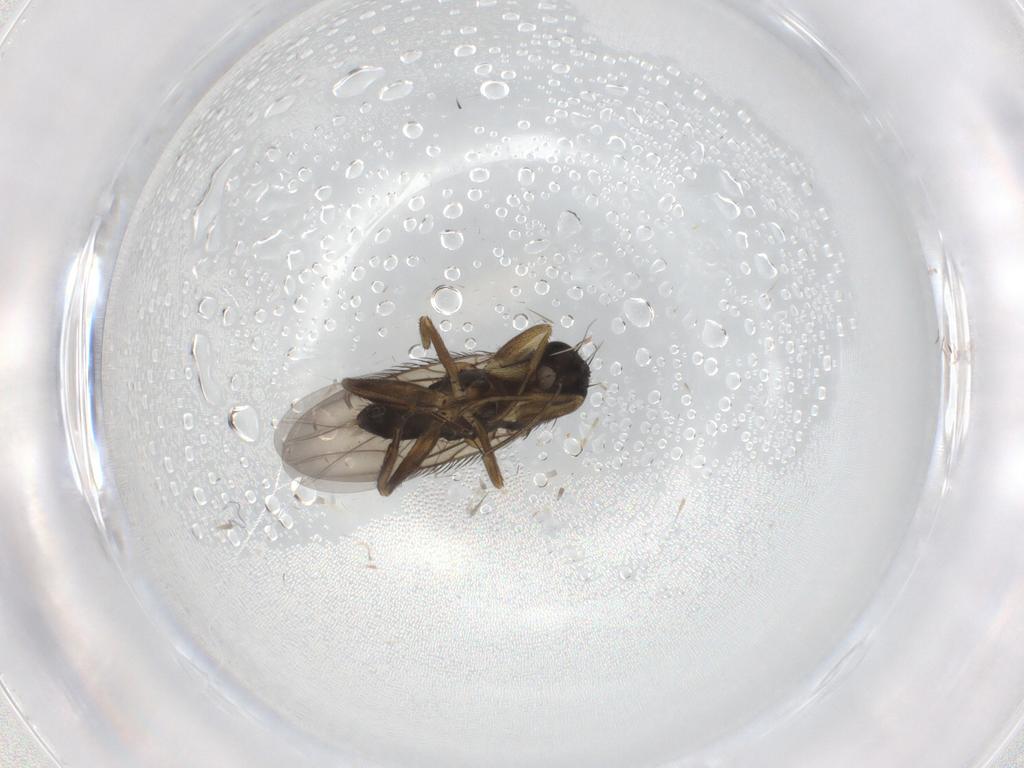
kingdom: Animalia
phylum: Arthropoda
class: Insecta
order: Diptera
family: Phoridae
